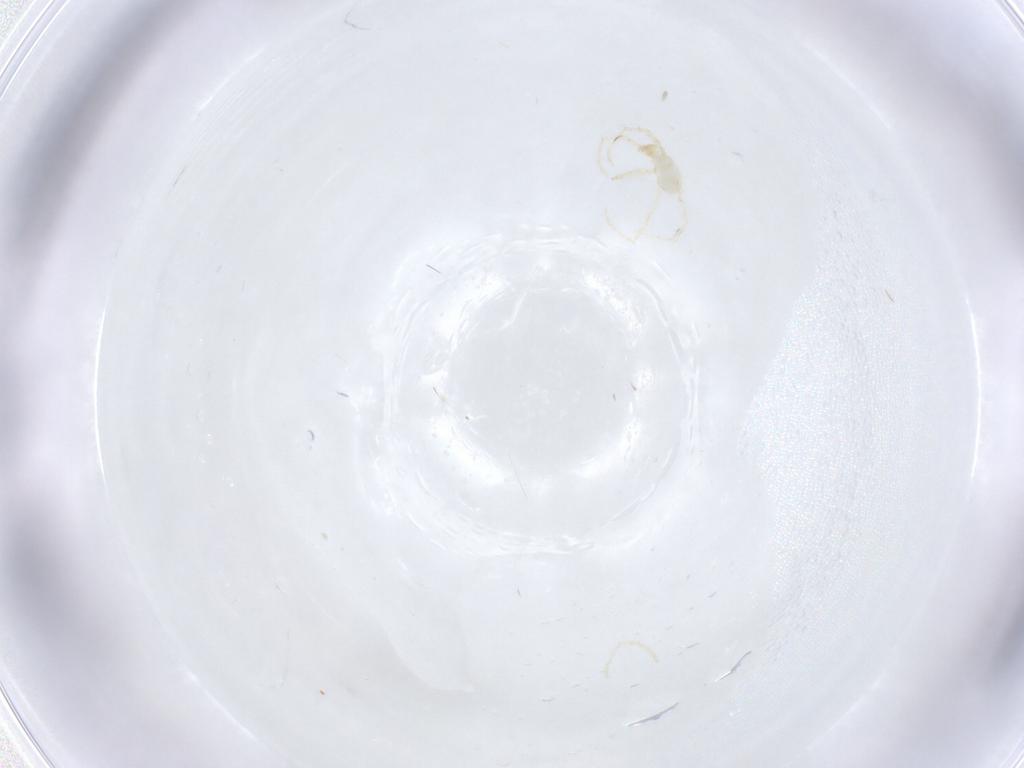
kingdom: Animalia
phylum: Arthropoda
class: Arachnida
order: Trombidiformes
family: Erythraeidae
